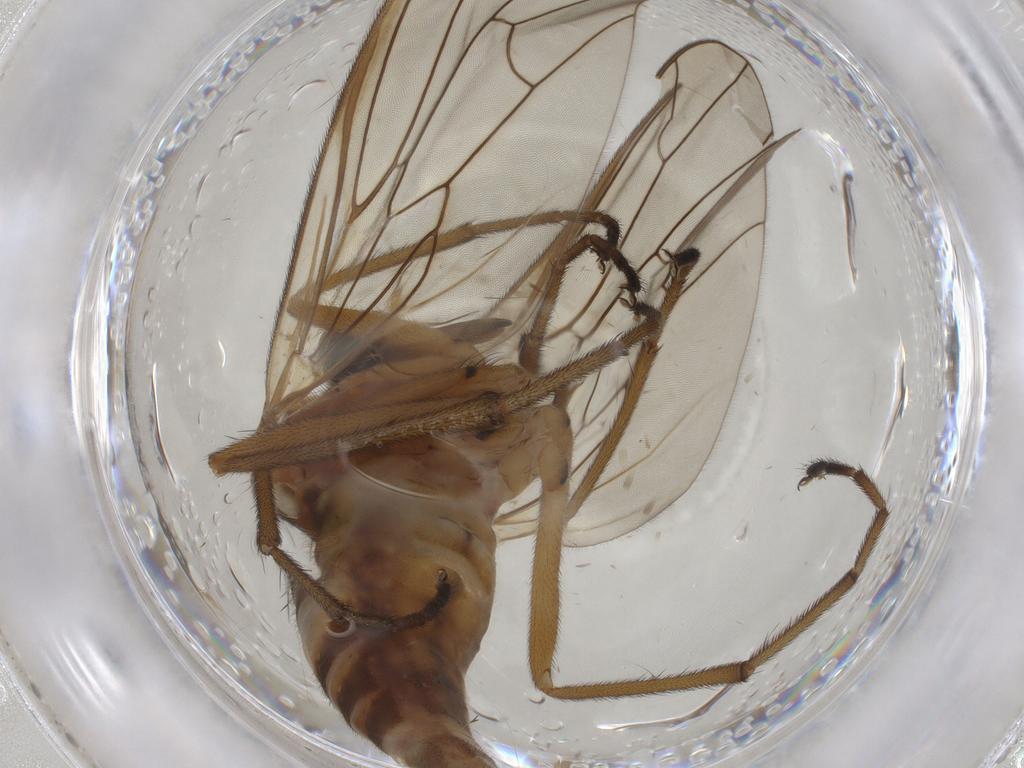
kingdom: Animalia
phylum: Arthropoda
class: Insecta
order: Diptera
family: Empididae
